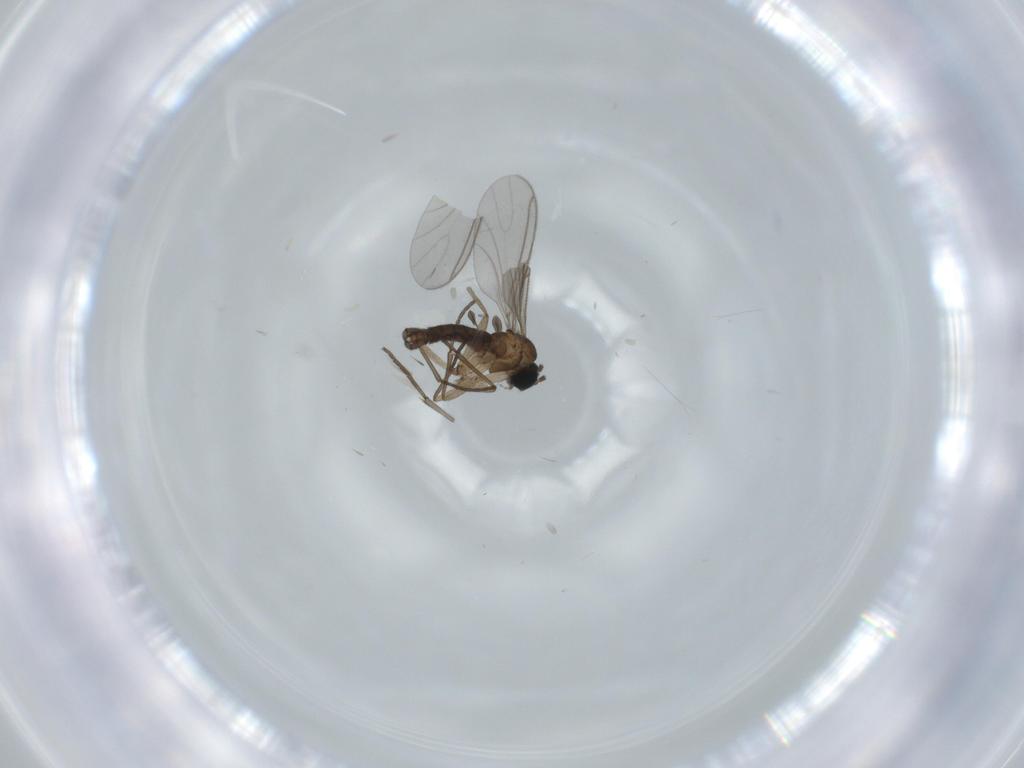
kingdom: Animalia
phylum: Arthropoda
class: Insecta
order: Diptera
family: Sciaridae
